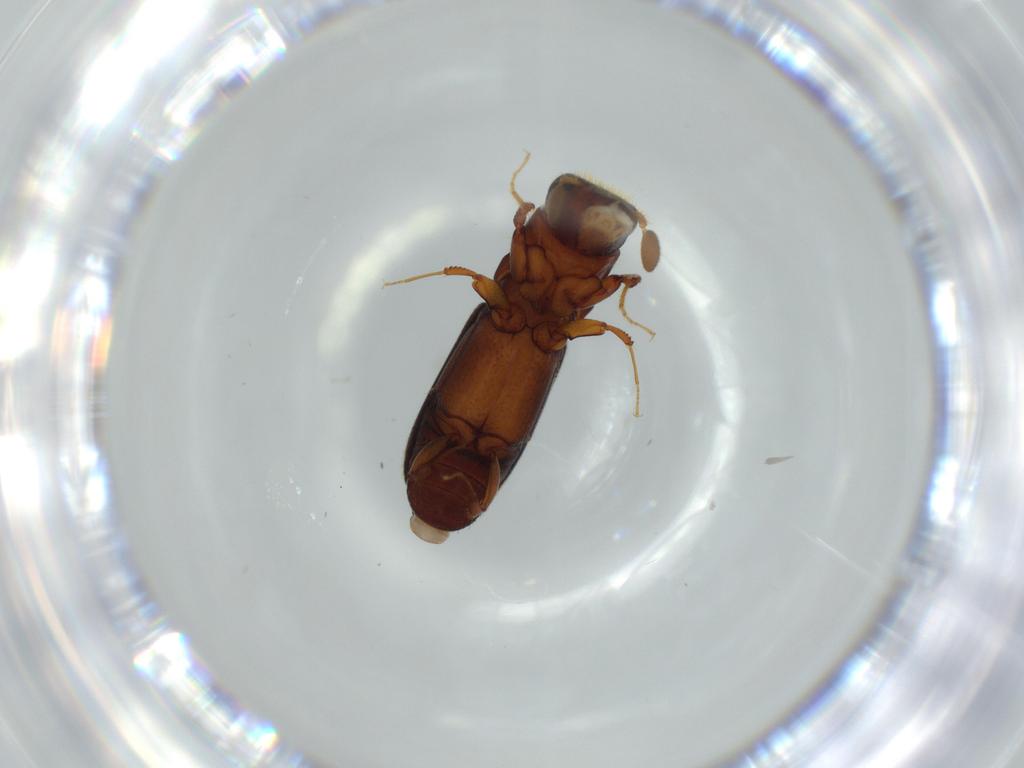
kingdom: Animalia
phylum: Arthropoda
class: Insecta
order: Coleoptera
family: Curculionidae
